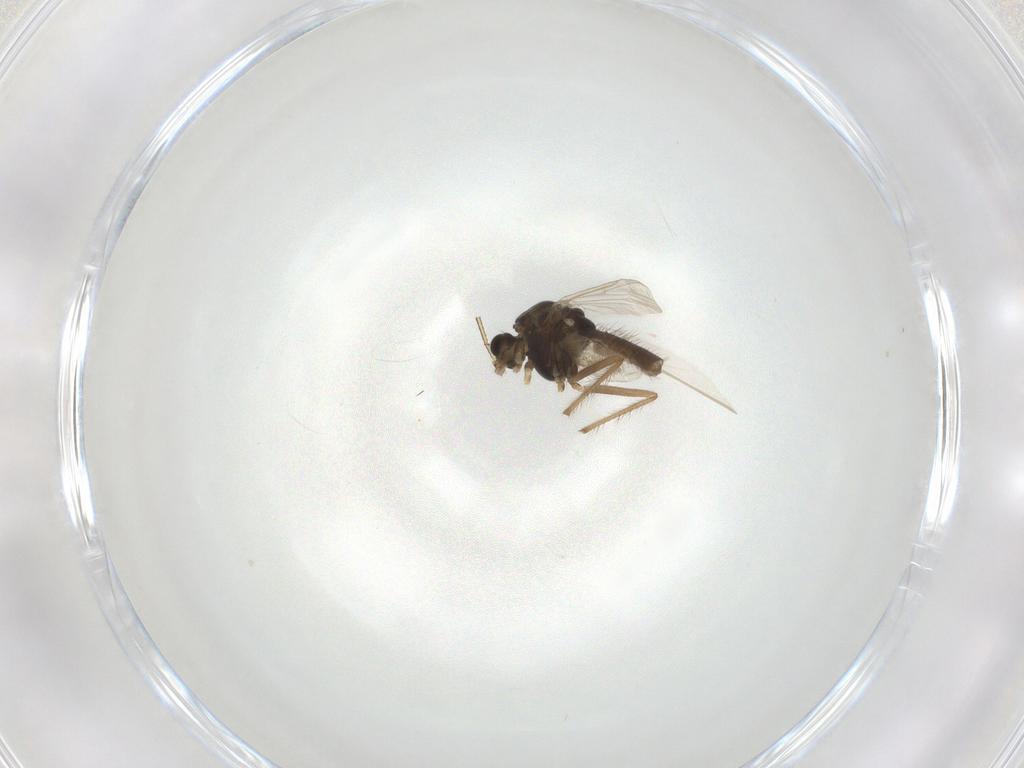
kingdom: Animalia
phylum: Arthropoda
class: Insecta
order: Diptera
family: Chironomidae
